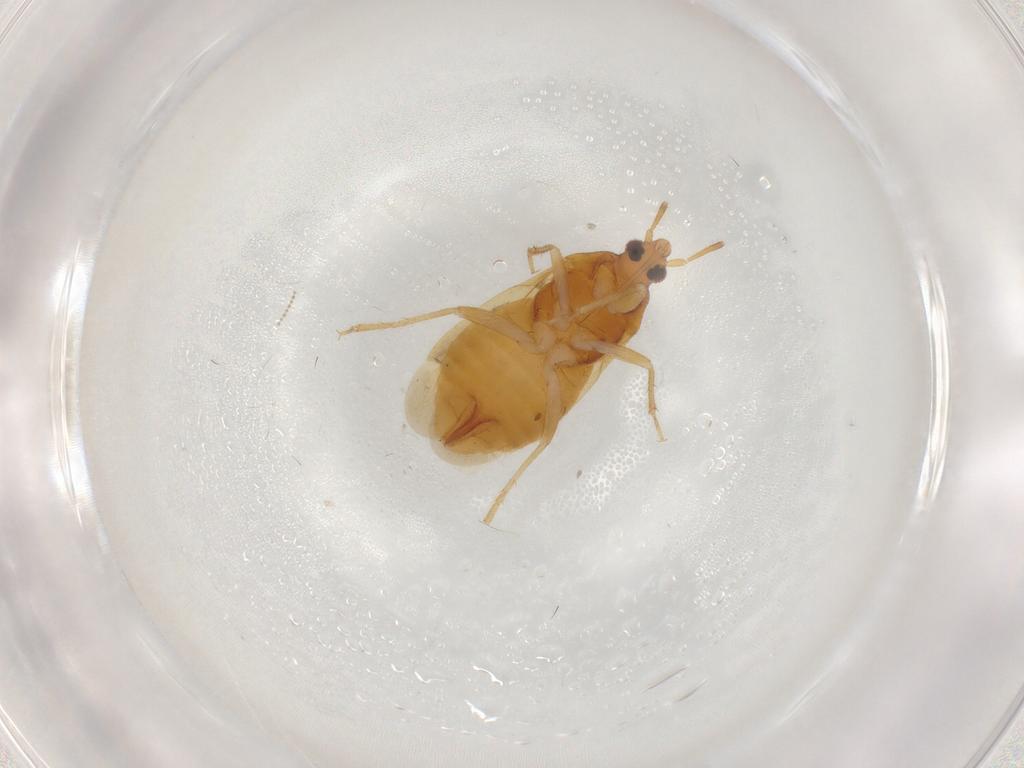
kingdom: Animalia
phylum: Arthropoda
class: Insecta
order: Hemiptera
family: Lasiochilidae
